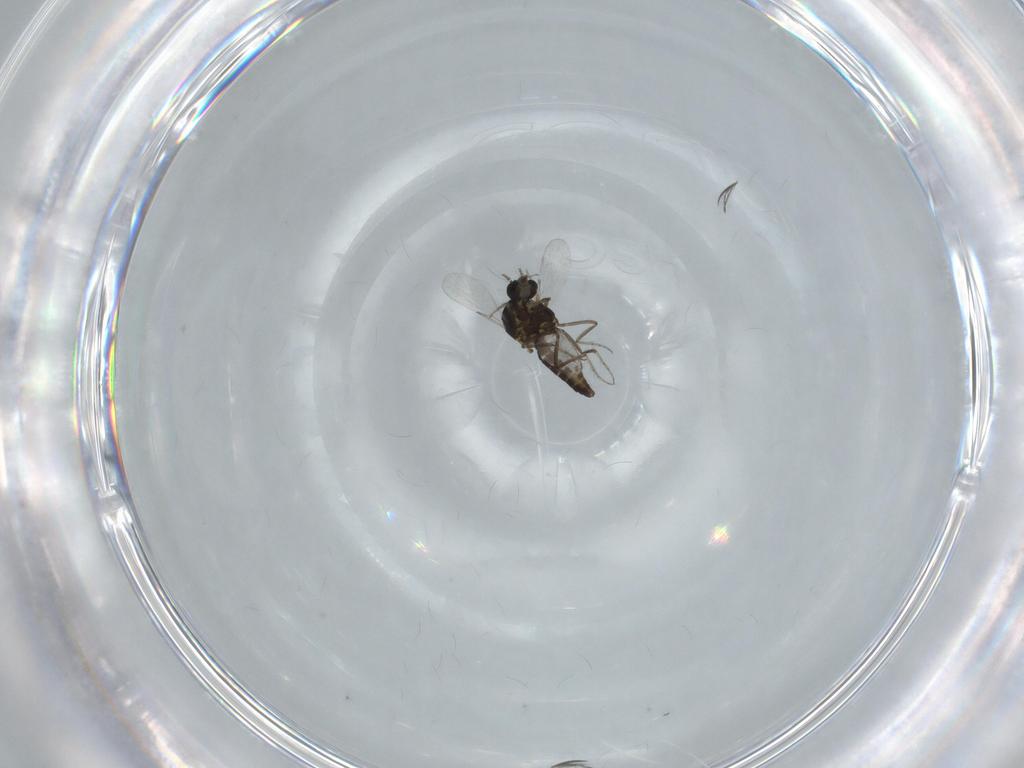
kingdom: Animalia
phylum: Arthropoda
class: Insecta
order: Diptera
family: Ceratopogonidae
